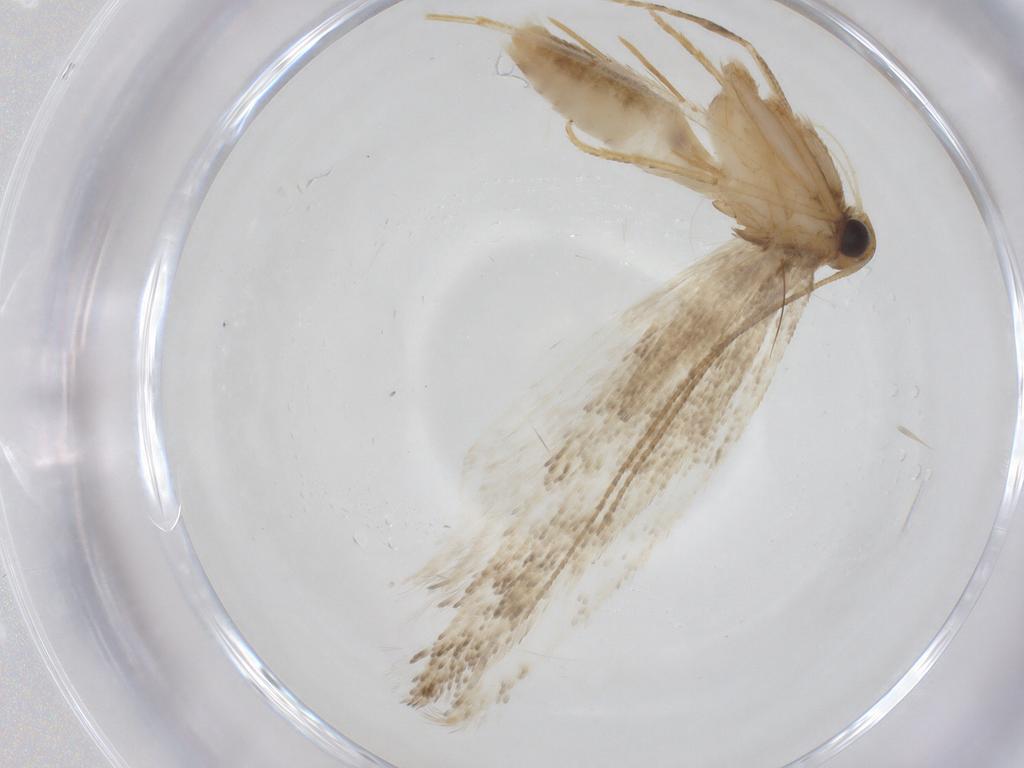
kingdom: Animalia
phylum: Arthropoda
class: Insecta
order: Lepidoptera
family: Gelechiidae
